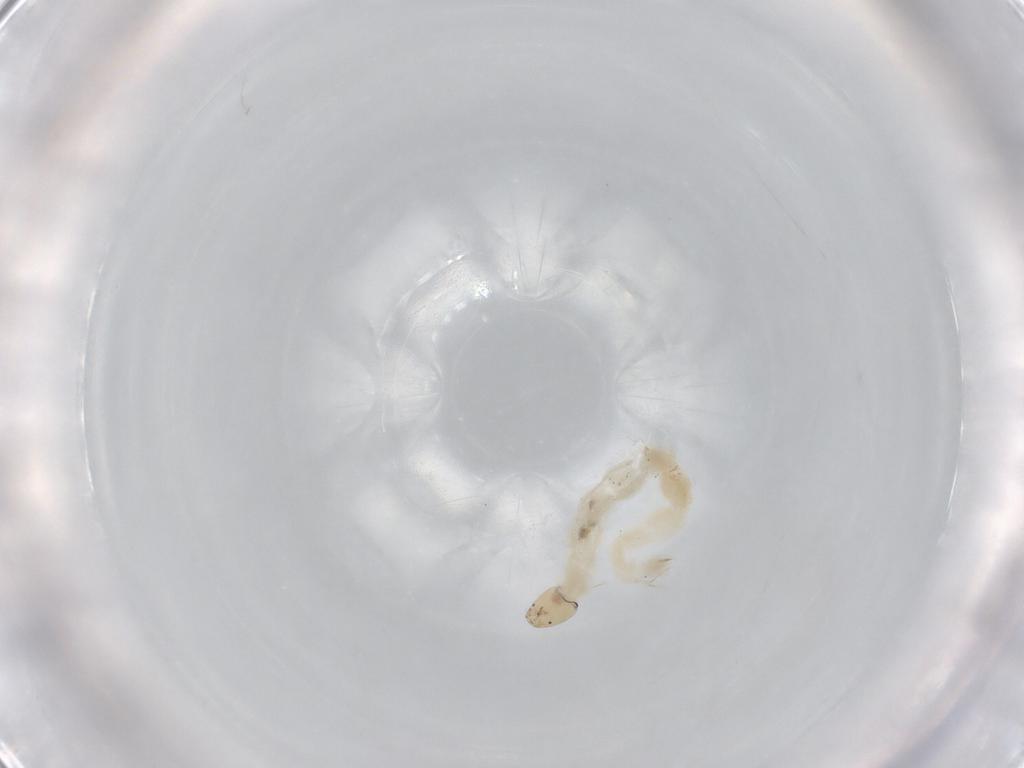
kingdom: Animalia
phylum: Arthropoda
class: Insecta
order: Diptera
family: Chironomidae
